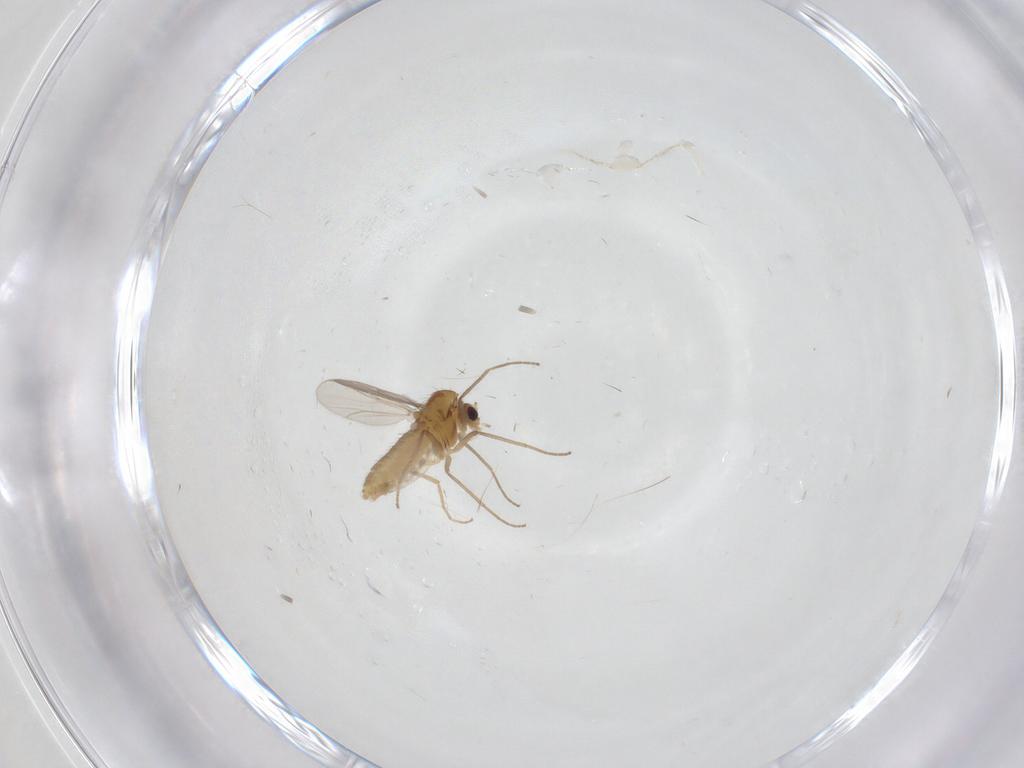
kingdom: Animalia
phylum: Arthropoda
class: Insecta
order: Diptera
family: Chironomidae
